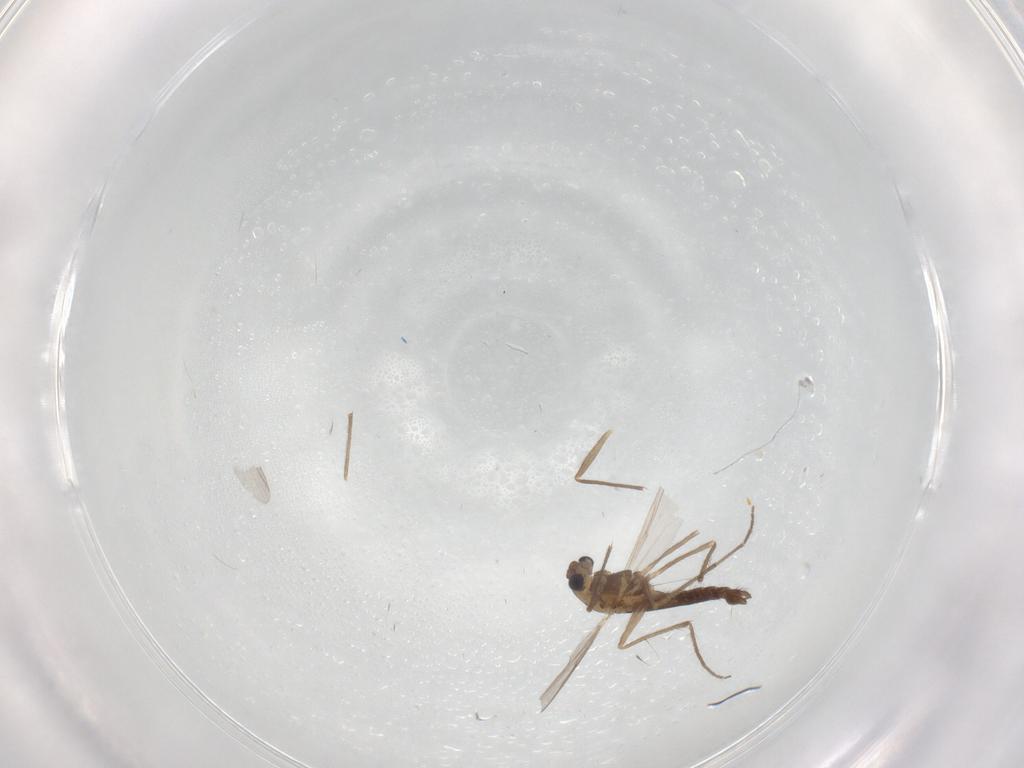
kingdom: Animalia
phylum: Arthropoda
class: Insecta
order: Diptera
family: Chironomidae
